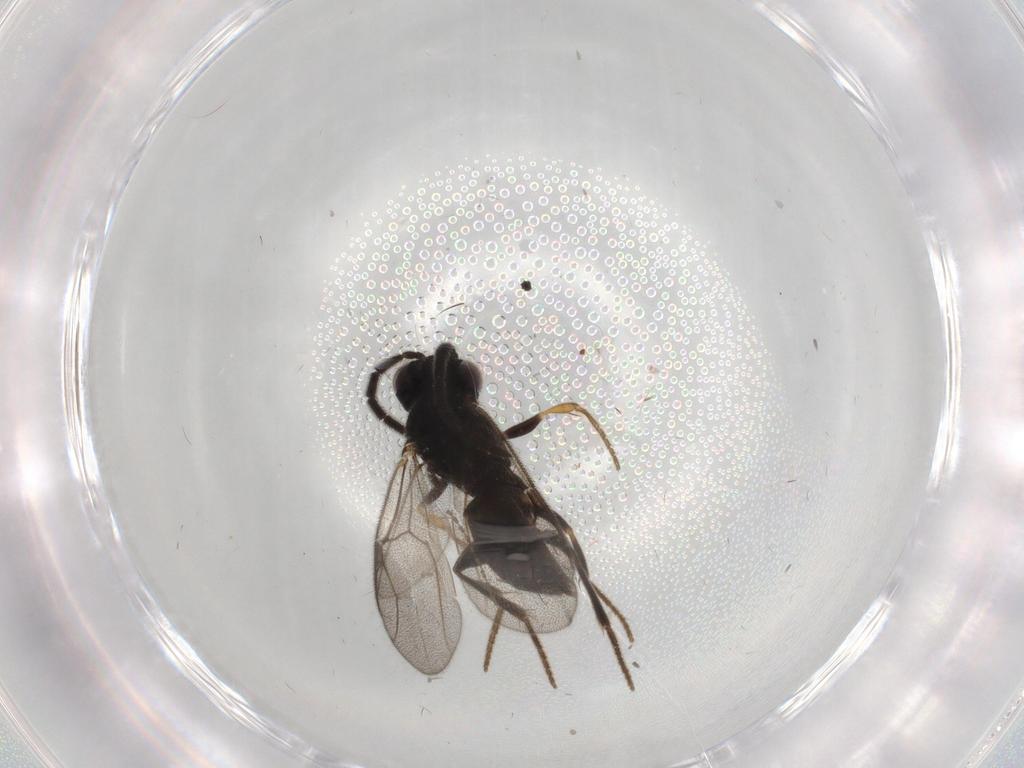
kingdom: Animalia
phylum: Arthropoda
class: Insecta
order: Hymenoptera
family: Dryinidae
